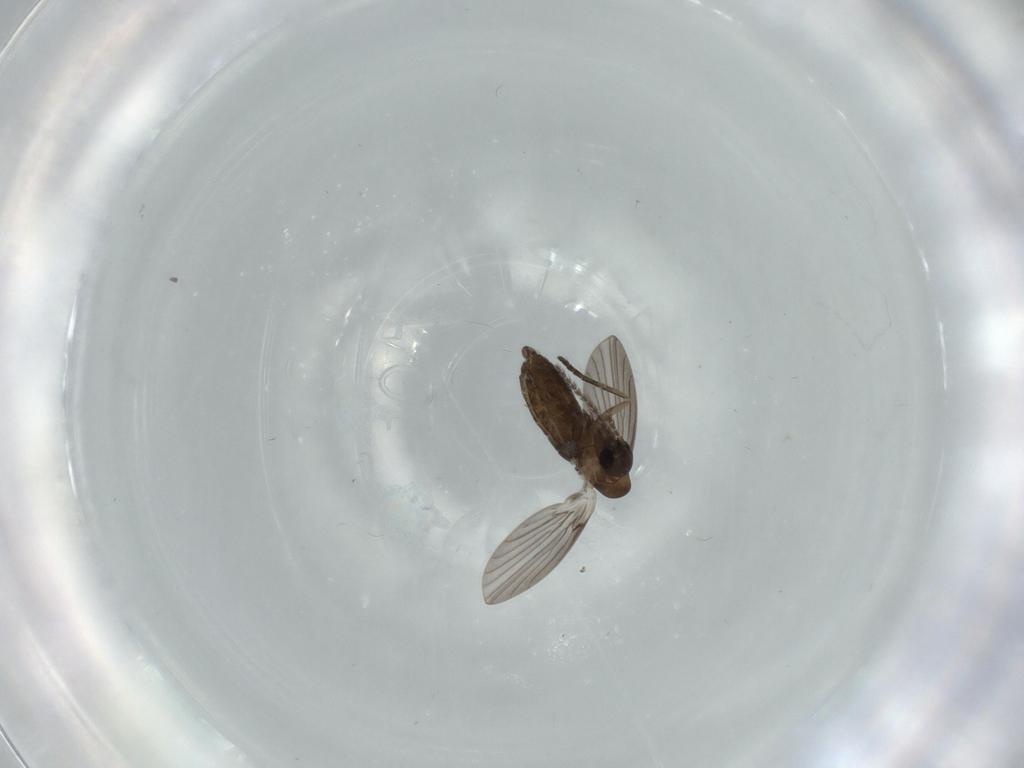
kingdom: Animalia
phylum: Arthropoda
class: Insecta
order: Diptera
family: Psychodidae
